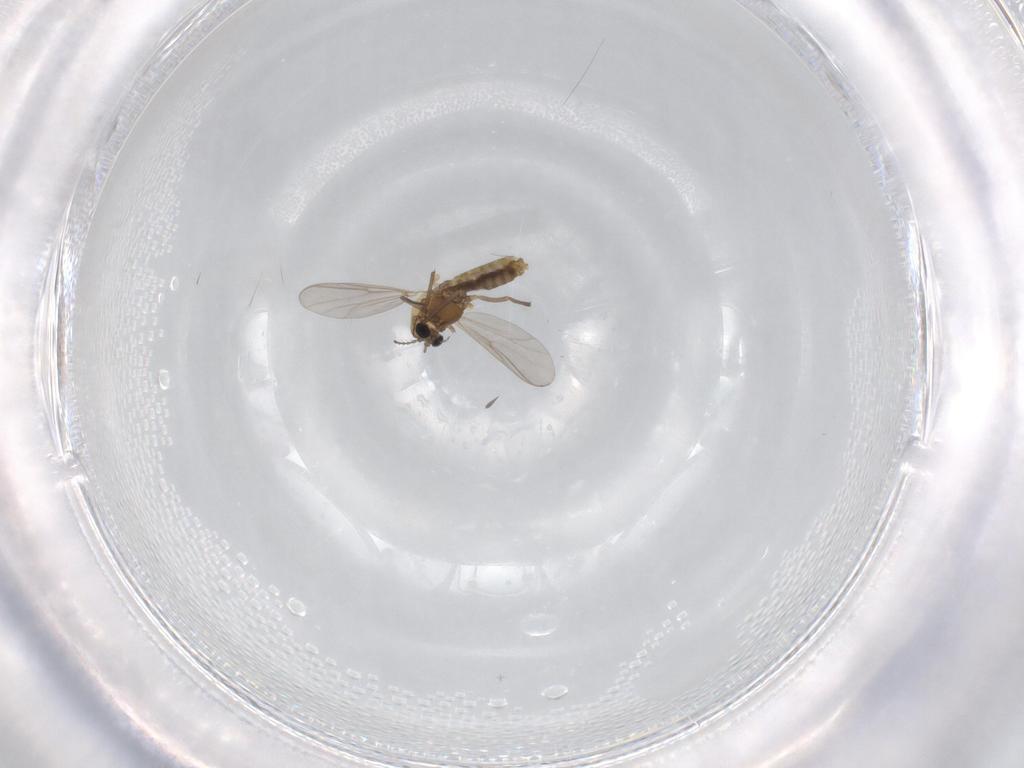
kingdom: Animalia
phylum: Arthropoda
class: Insecta
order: Diptera
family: Chironomidae
